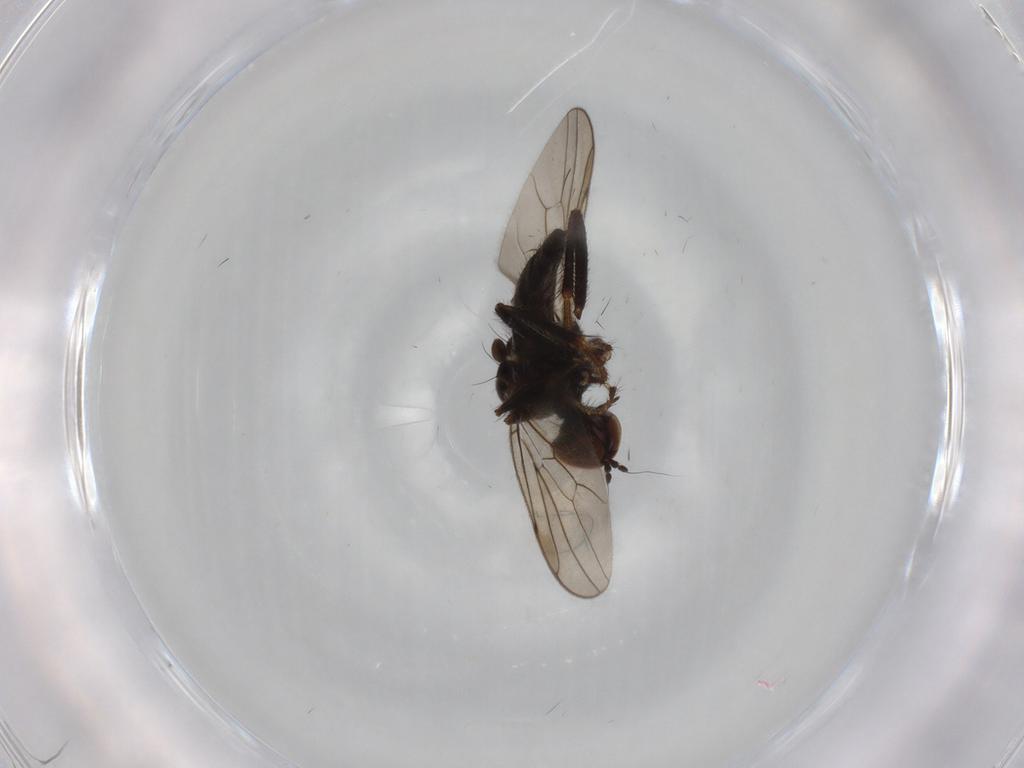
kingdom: Animalia
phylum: Arthropoda
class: Insecta
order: Diptera
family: Hybotidae
